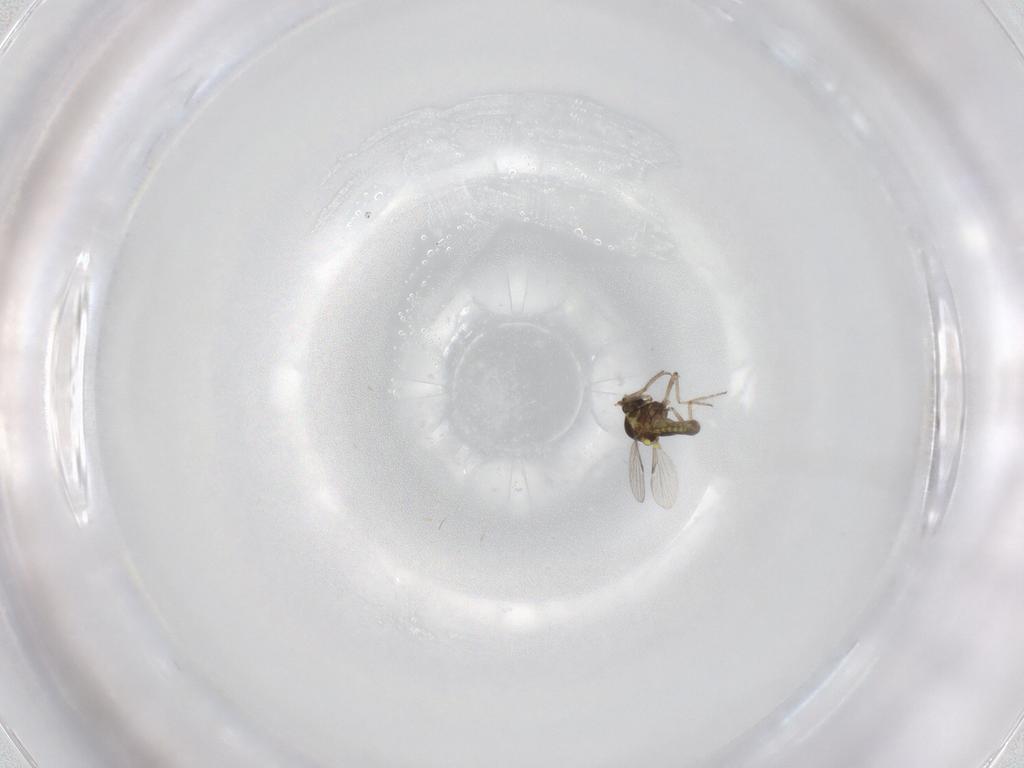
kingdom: Animalia
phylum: Arthropoda
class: Insecta
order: Diptera
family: Ceratopogonidae
